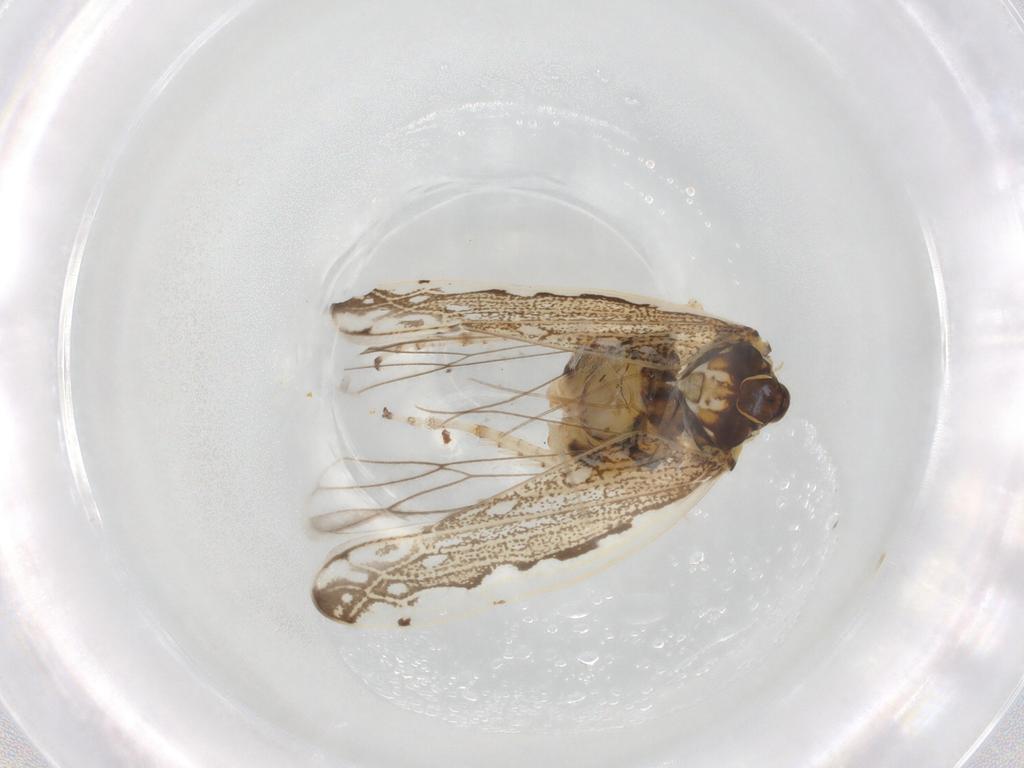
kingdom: Animalia
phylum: Arthropoda
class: Insecta
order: Hemiptera
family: Cicadellidae
